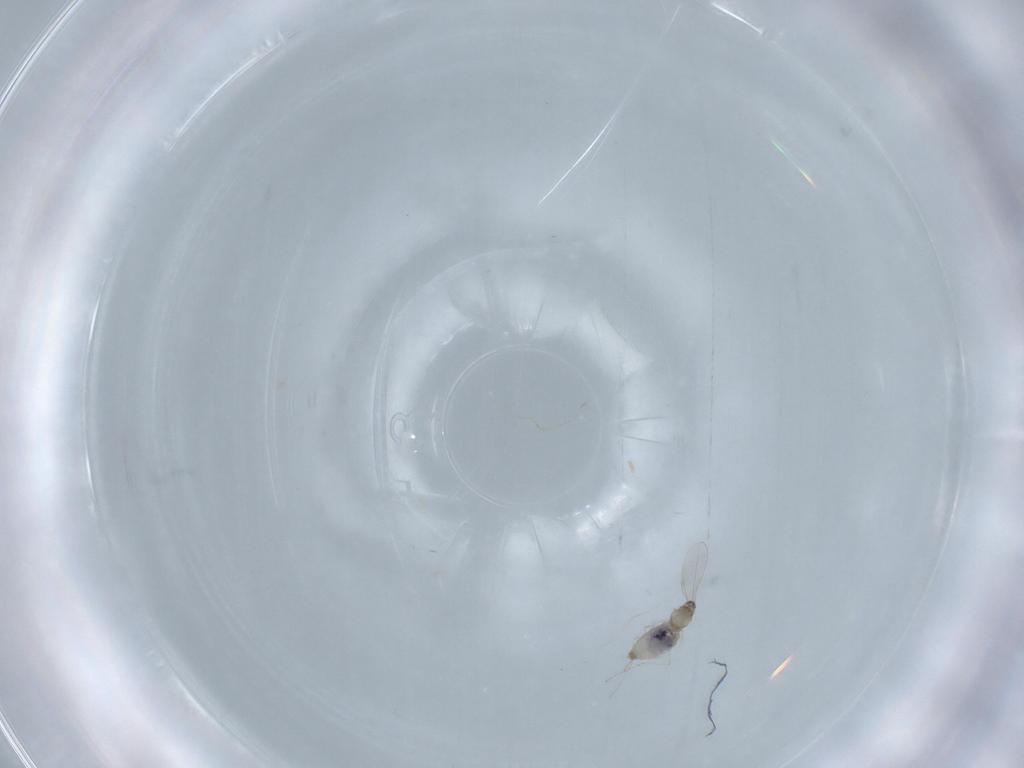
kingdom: Animalia
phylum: Arthropoda
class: Insecta
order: Diptera
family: Cecidomyiidae
